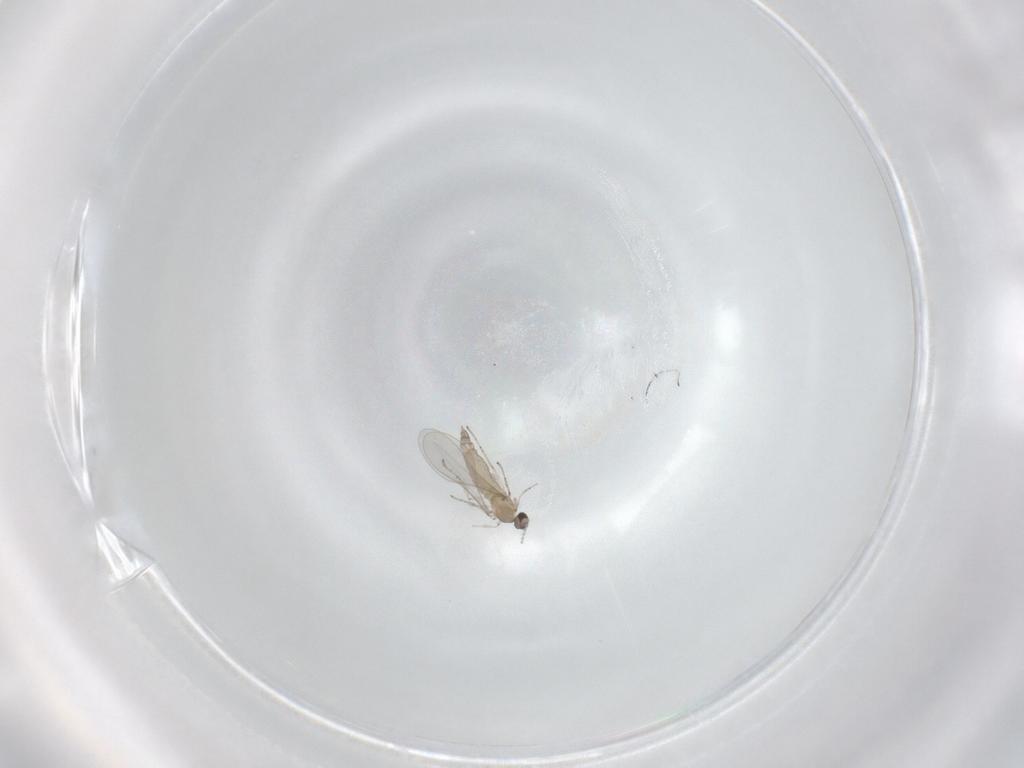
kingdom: Animalia
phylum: Arthropoda
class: Insecta
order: Diptera
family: Cecidomyiidae
